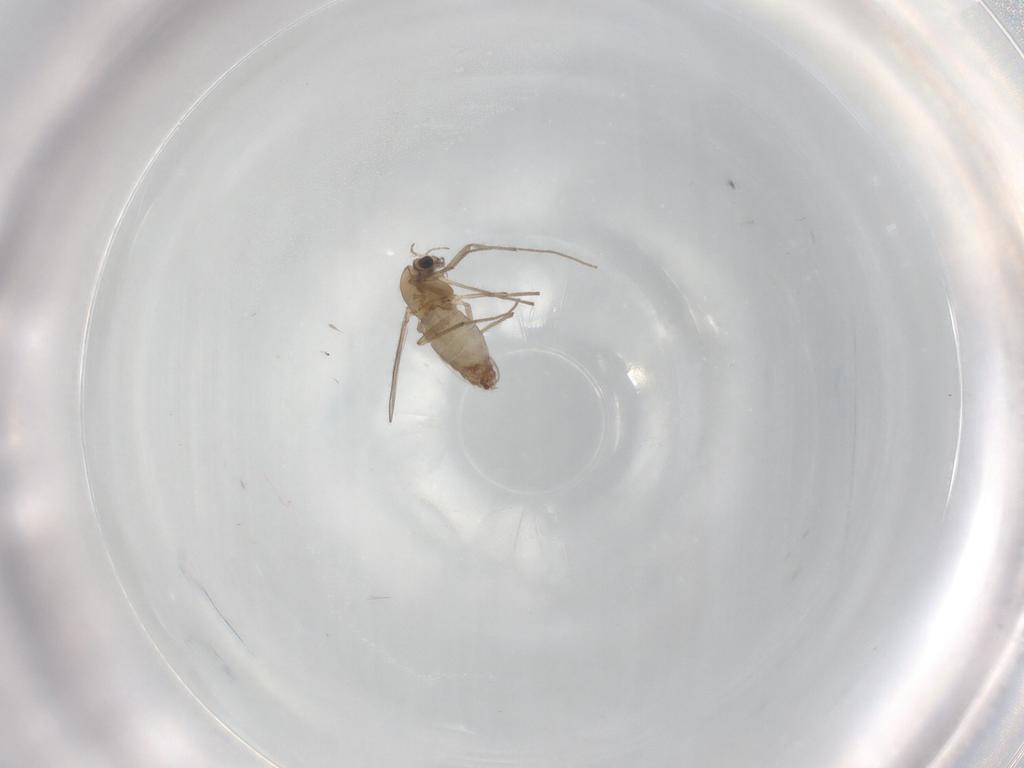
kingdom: Animalia
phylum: Arthropoda
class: Insecta
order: Diptera
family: Chironomidae
